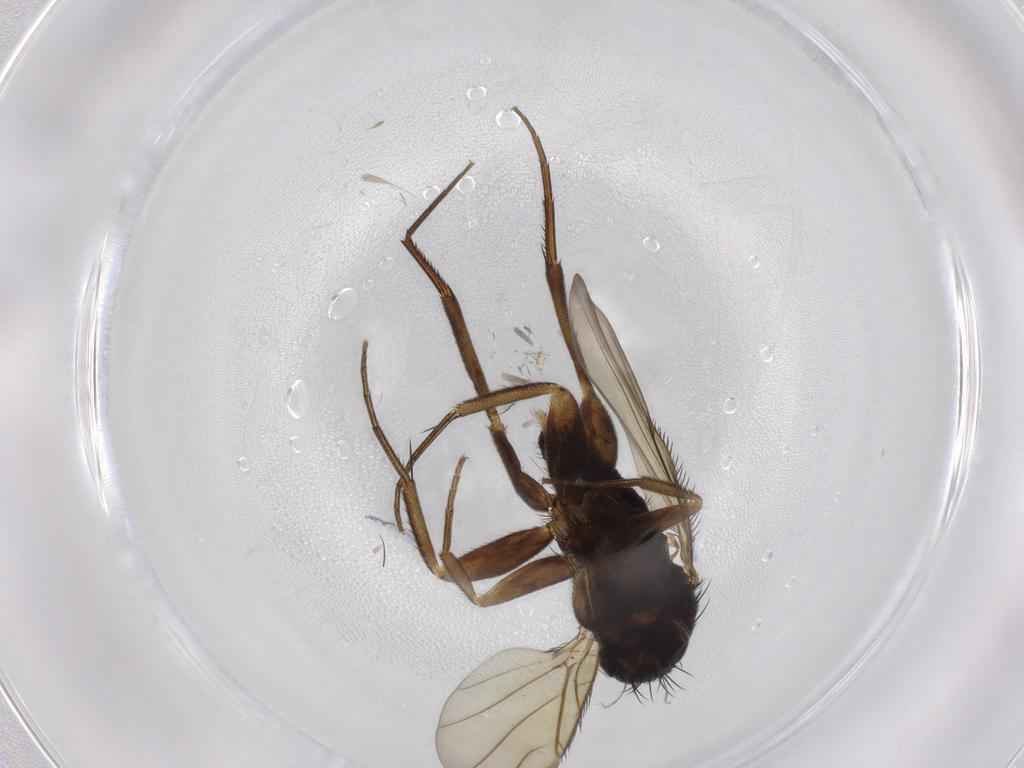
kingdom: Animalia
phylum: Arthropoda
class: Insecta
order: Diptera
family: Phoridae
